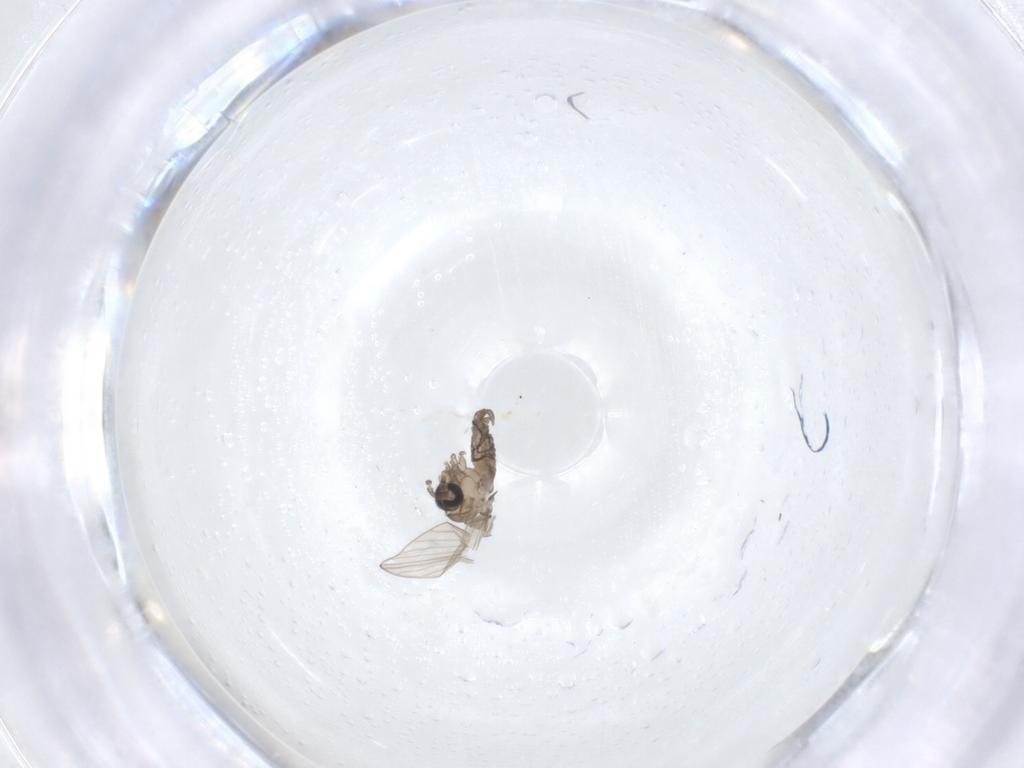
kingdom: Animalia
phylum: Arthropoda
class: Insecta
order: Diptera
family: Psychodidae
